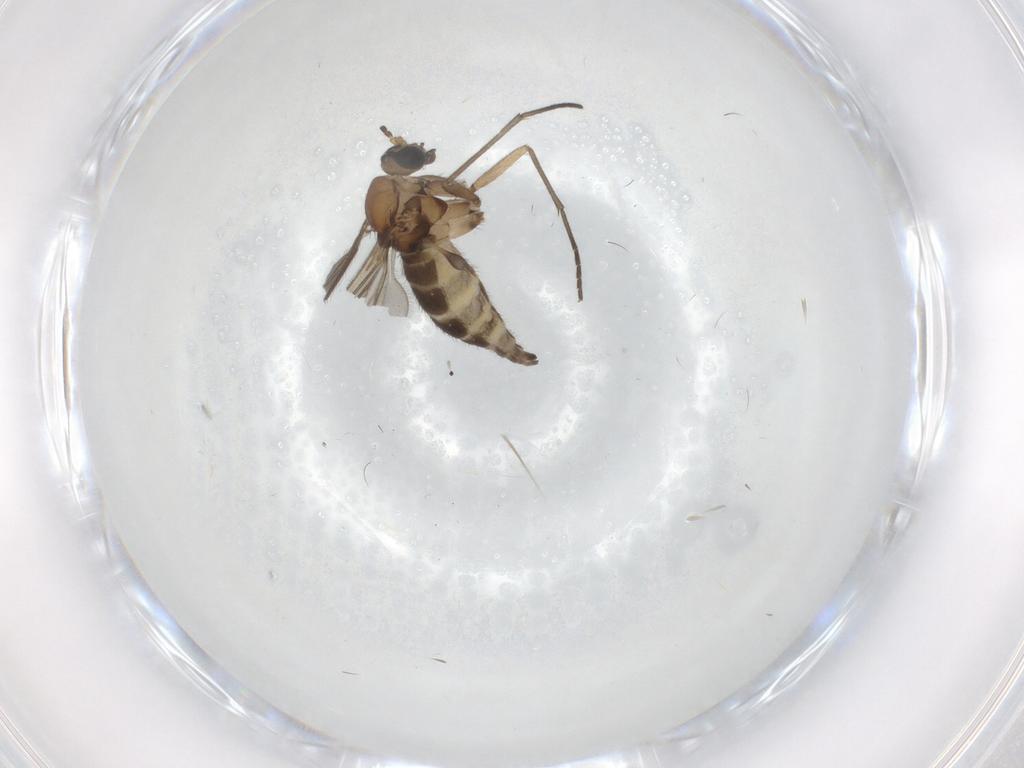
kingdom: Animalia
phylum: Arthropoda
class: Insecta
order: Diptera
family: Sciaridae
